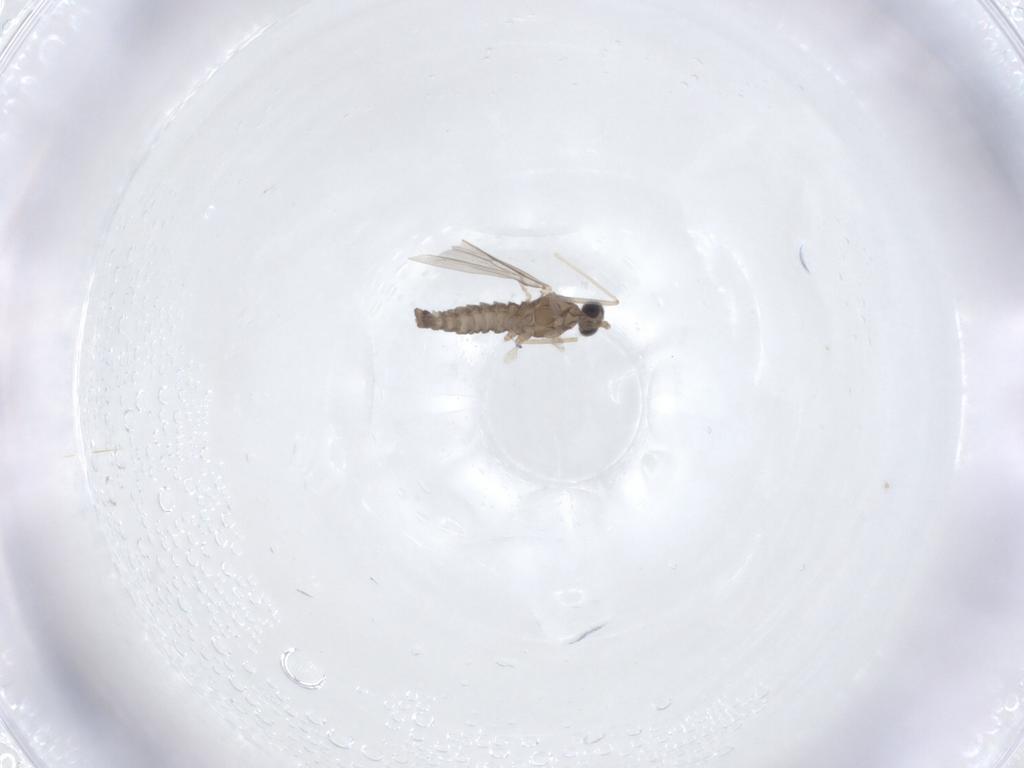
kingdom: Animalia
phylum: Arthropoda
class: Insecta
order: Diptera
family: Cecidomyiidae
